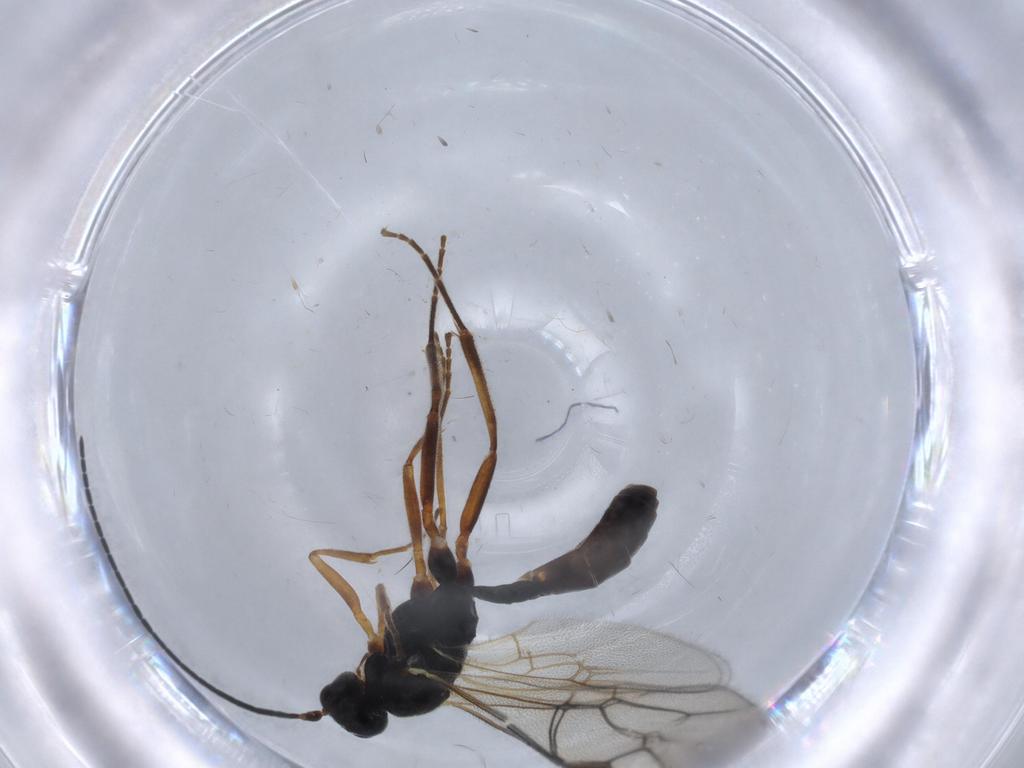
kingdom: Animalia
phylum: Arthropoda
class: Insecta
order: Hymenoptera
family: Ichneumonidae
